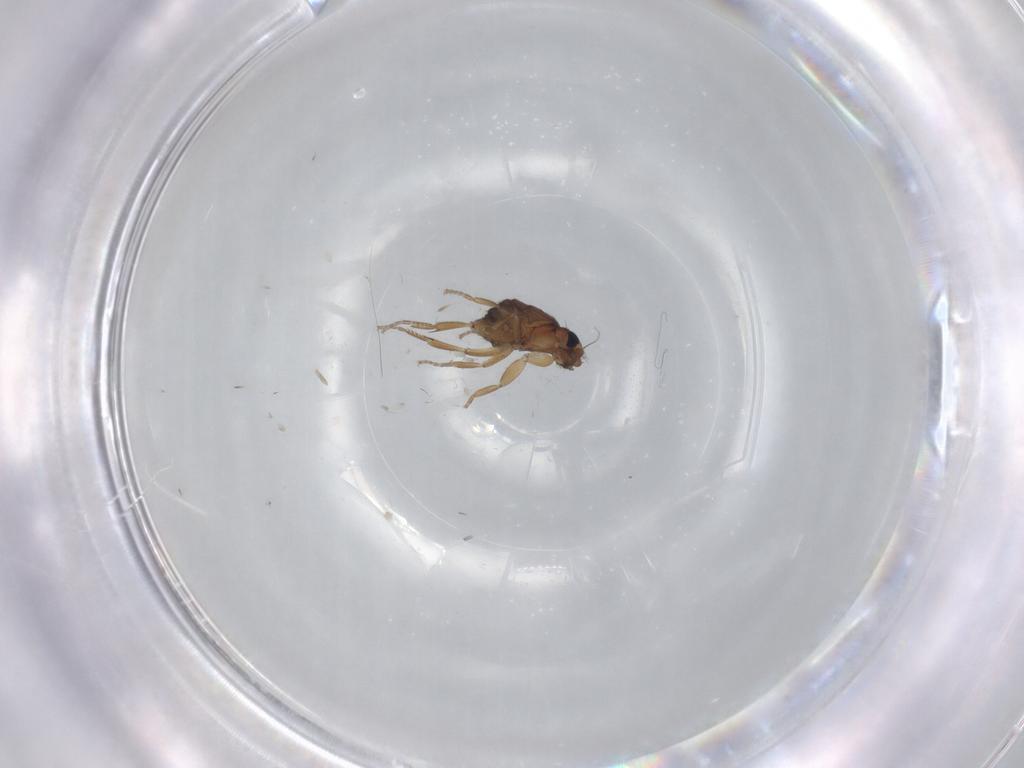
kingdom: Animalia
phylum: Arthropoda
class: Insecta
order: Diptera
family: Phoridae
